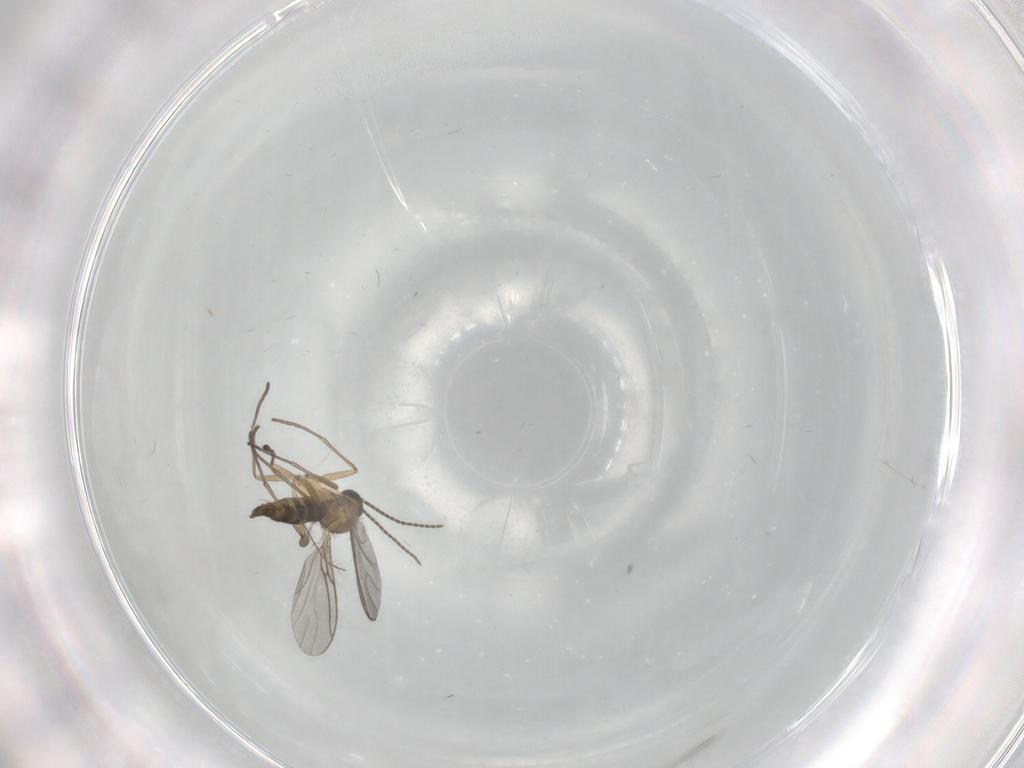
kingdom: Animalia
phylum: Arthropoda
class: Insecta
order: Diptera
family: Sciaridae
